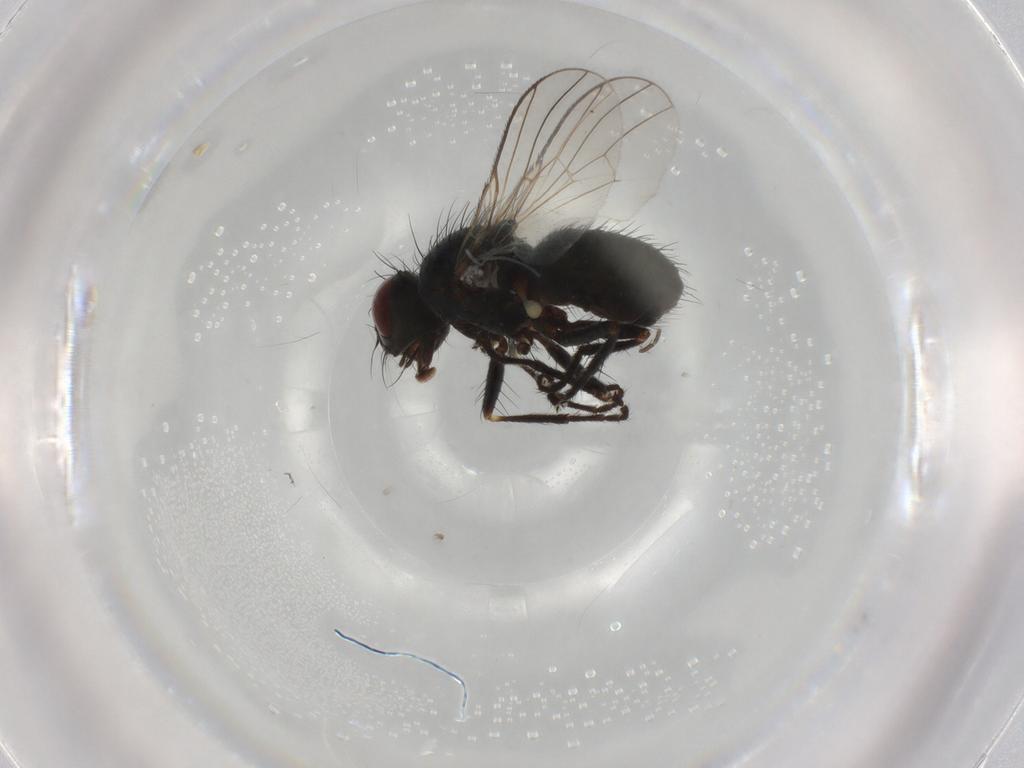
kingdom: Animalia
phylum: Arthropoda
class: Insecta
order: Diptera
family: Muscidae
